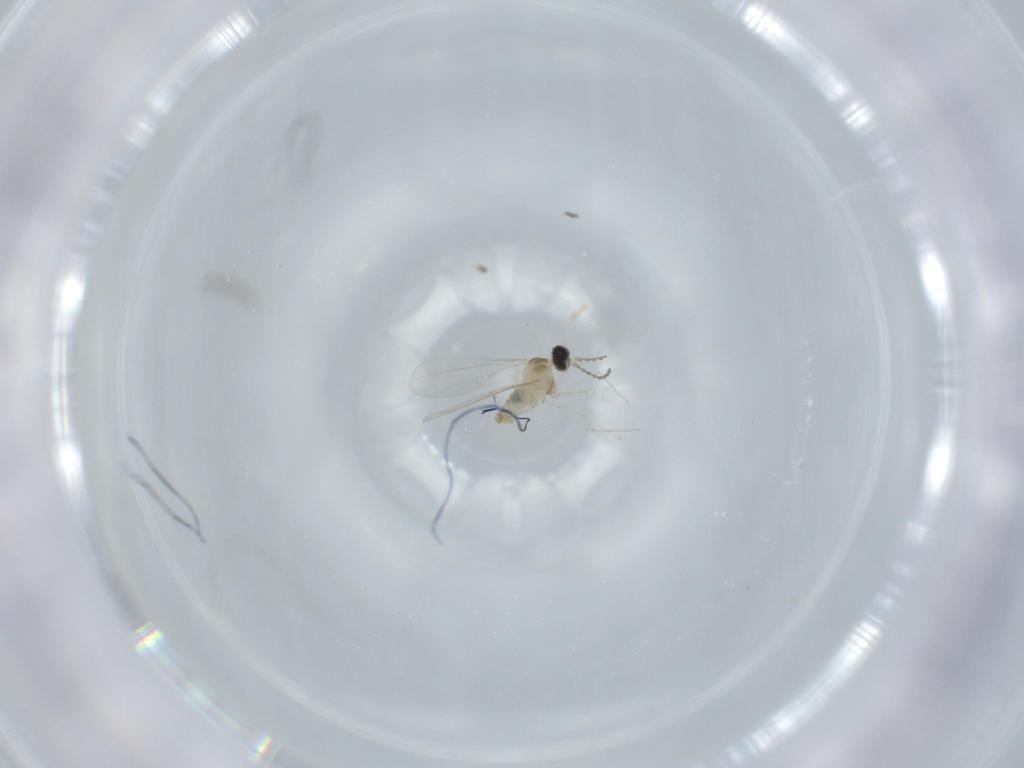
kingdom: Animalia
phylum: Arthropoda
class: Insecta
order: Diptera
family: Cecidomyiidae
